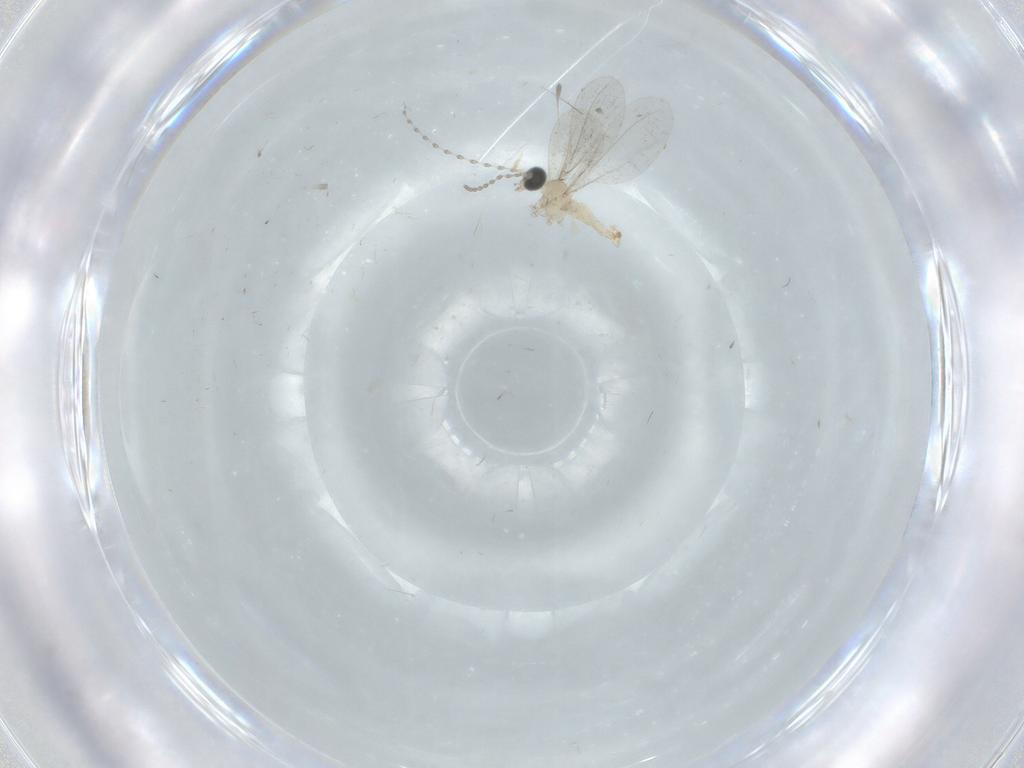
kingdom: Animalia
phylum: Arthropoda
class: Insecta
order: Diptera
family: Cecidomyiidae
